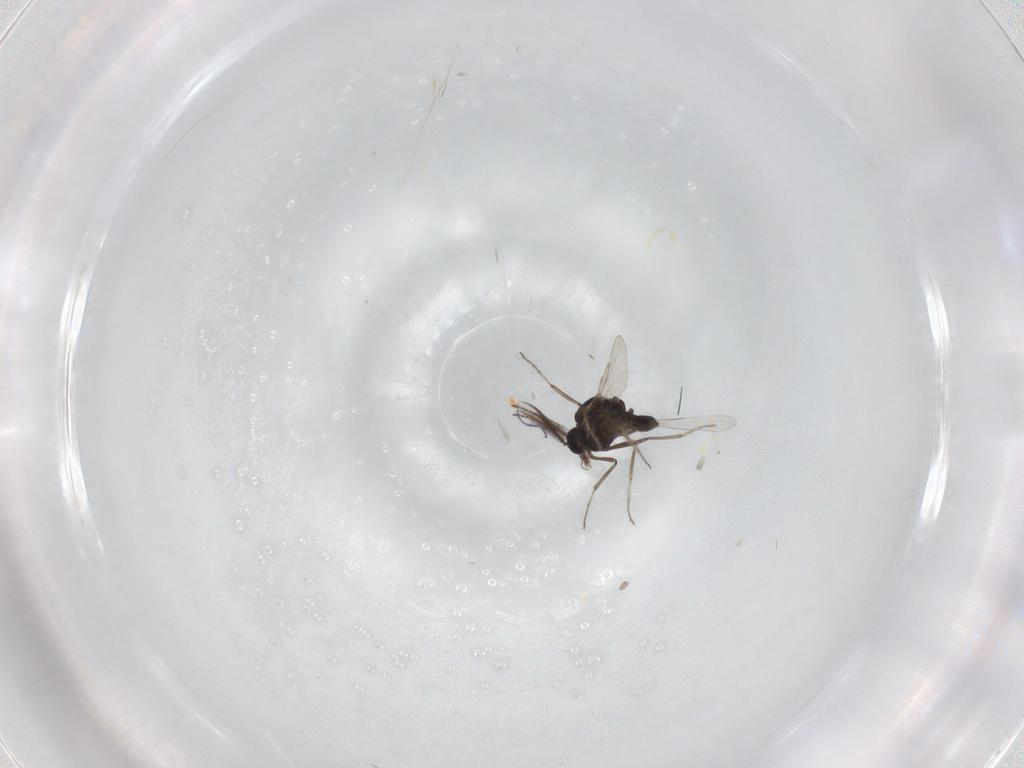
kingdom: Animalia
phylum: Arthropoda
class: Insecta
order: Diptera
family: Ceratopogonidae
